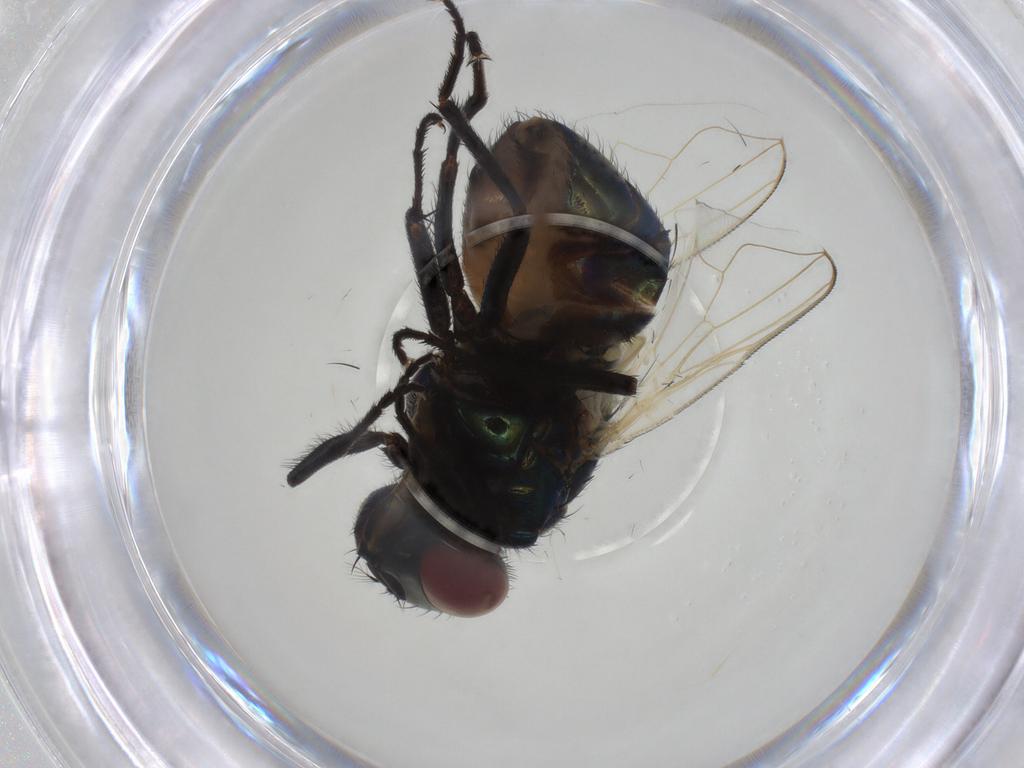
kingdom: Animalia
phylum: Arthropoda
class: Insecta
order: Diptera
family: Muscidae
